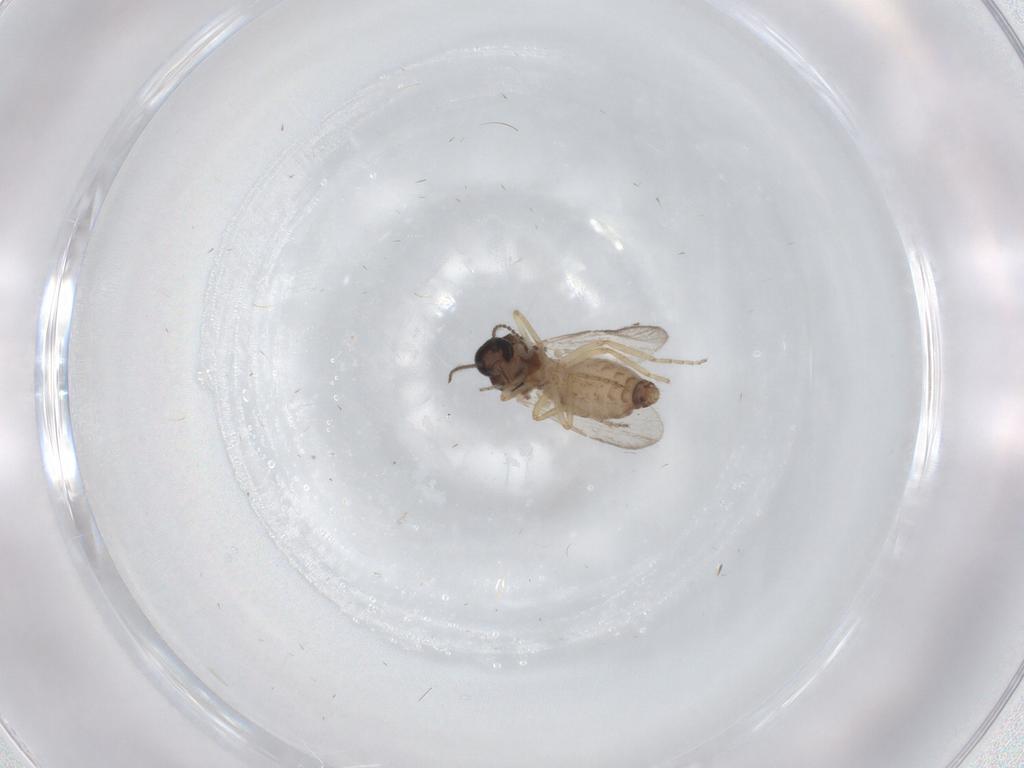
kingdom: Animalia
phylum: Arthropoda
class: Insecta
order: Diptera
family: Ceratopogonidae
